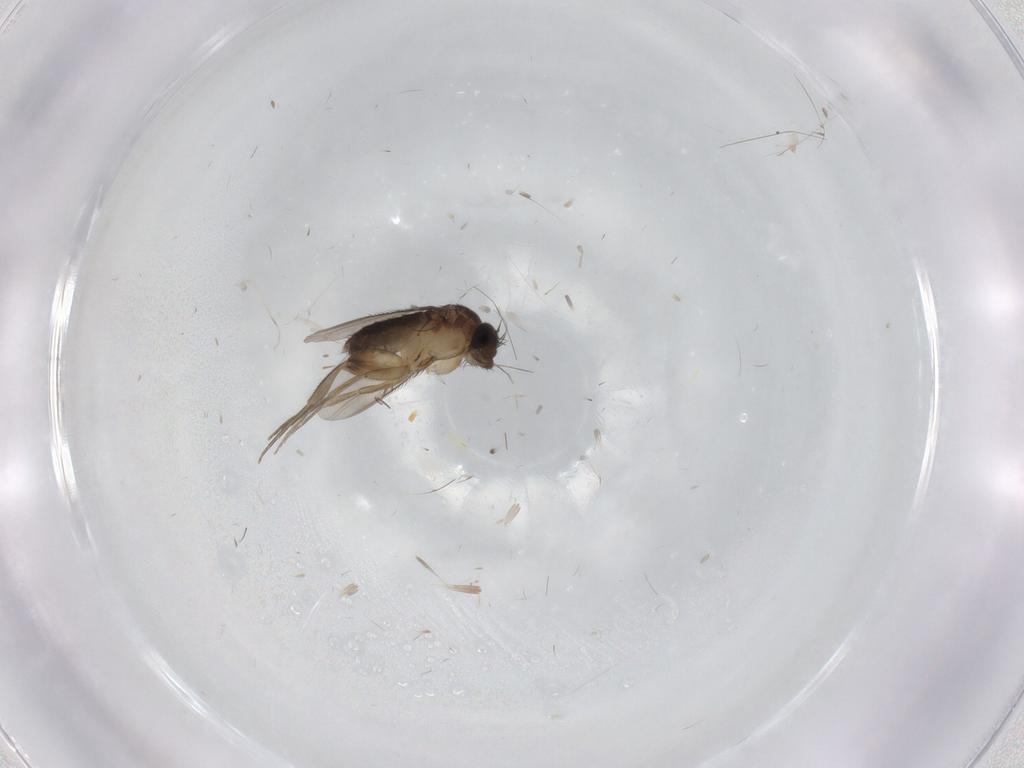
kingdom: Animalia
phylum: Arthropoda
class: Insecta
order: Diptera
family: Phoridae
